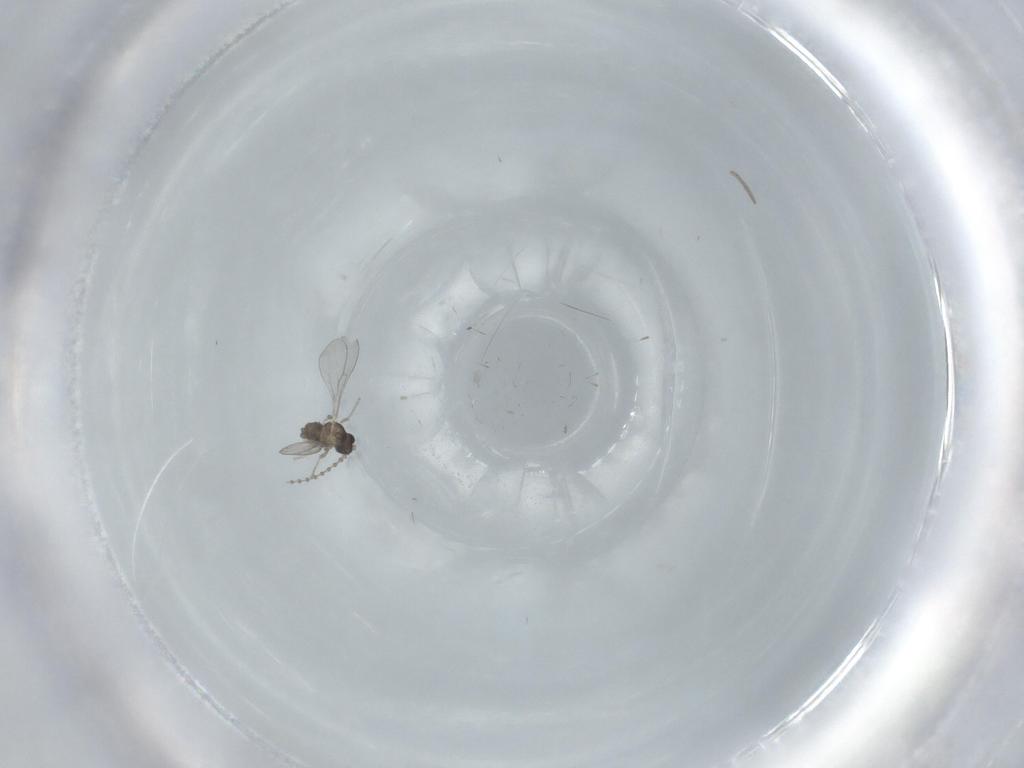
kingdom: Animalia
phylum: Arthropoda
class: Insecta
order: Diptera
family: Cecidomyiidae
